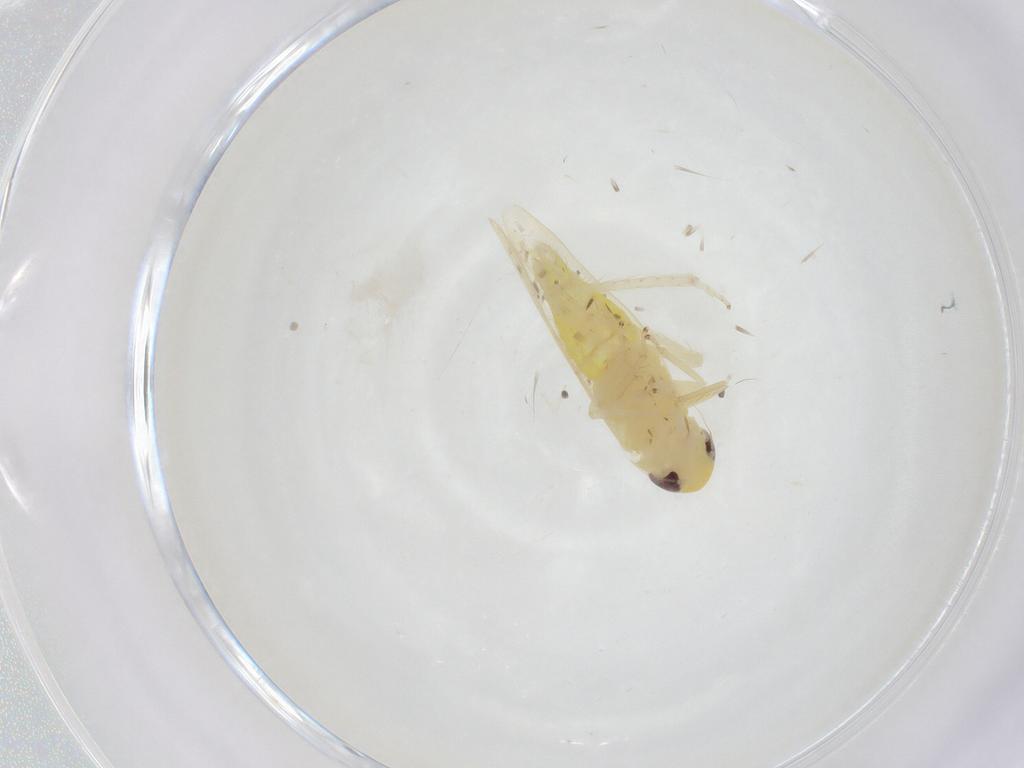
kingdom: Animalia
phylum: Arthropoda
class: Insecta
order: Hemiptera
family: Cicadellidae
